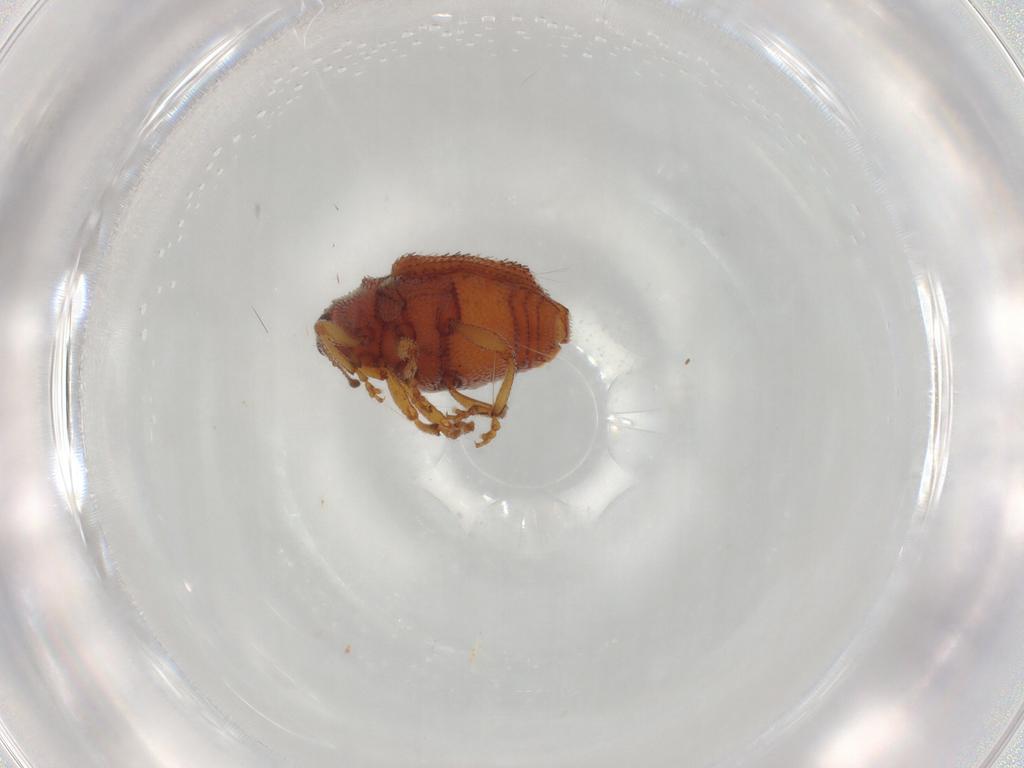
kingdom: Animalia
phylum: Arthropoda
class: Insecta
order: Coleoptera
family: Curculionidae
